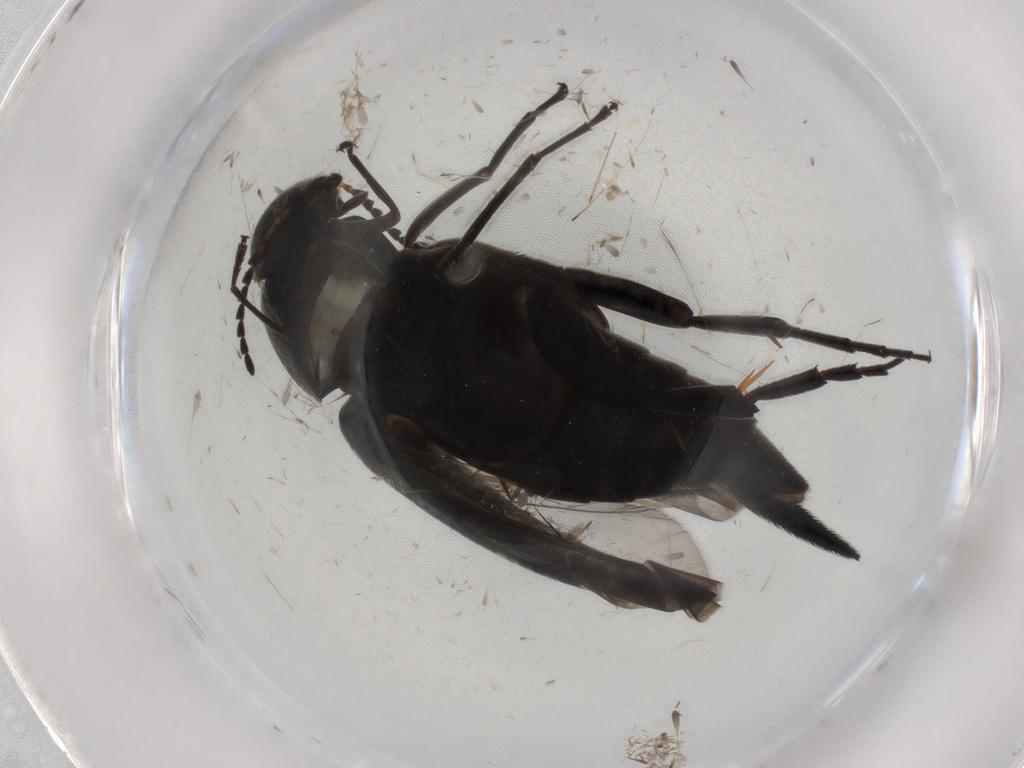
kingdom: Animalia
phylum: Arthropoda
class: Insecta
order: Coleoptera
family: Mordellidae
